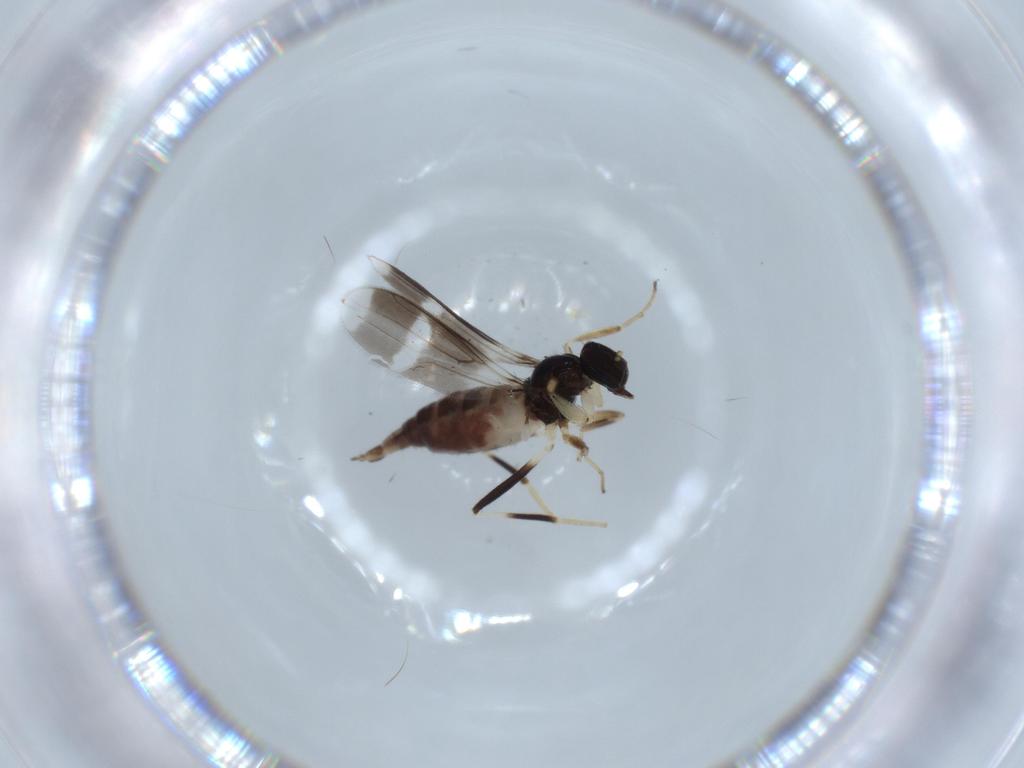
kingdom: Animalia
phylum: Arthropoda
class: Insecta
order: Diptera
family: Hybotidae
